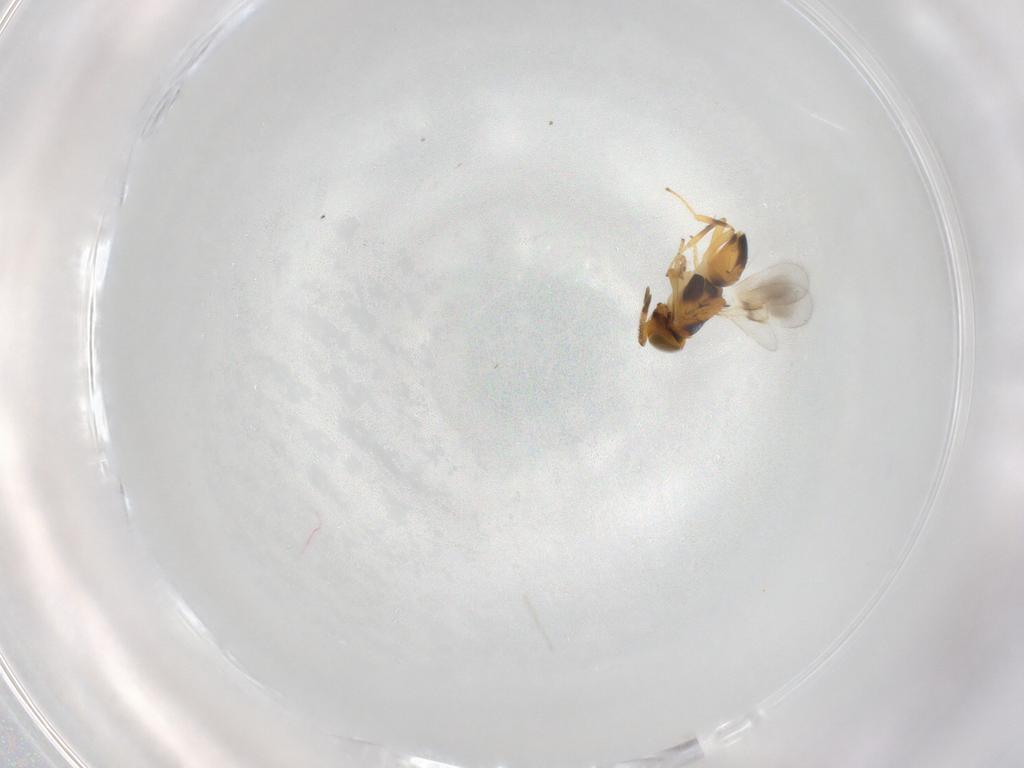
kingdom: Animalia
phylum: Arthropoda
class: Insecta
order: Hymenoptera
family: Encyrtidae
